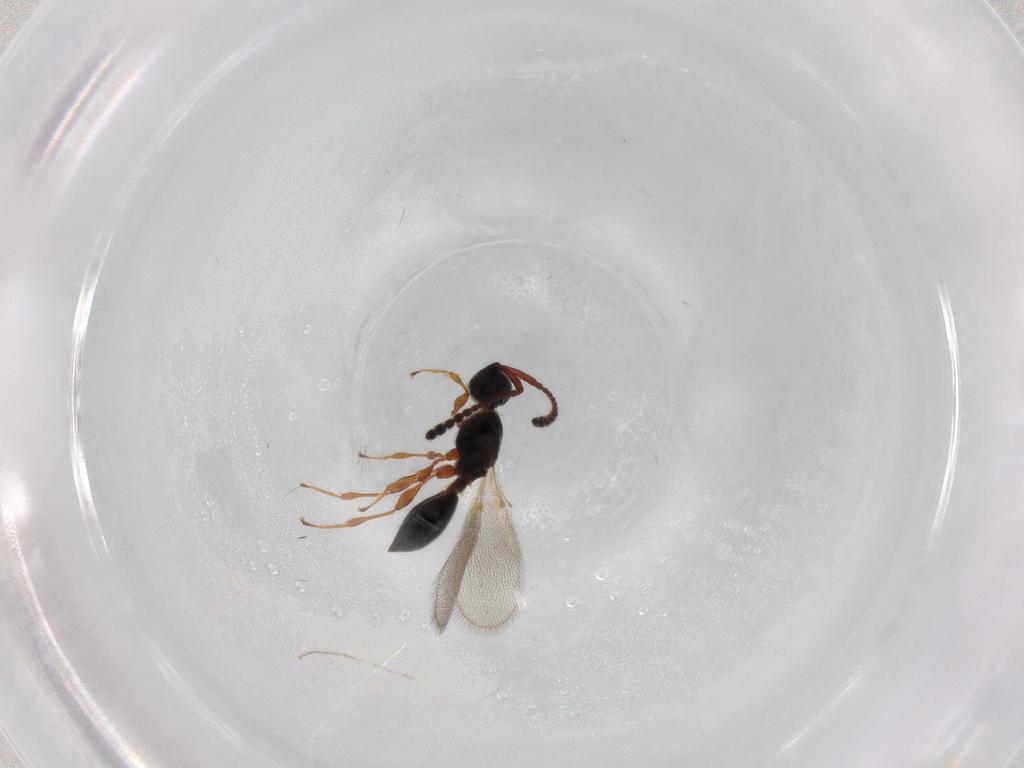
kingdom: Animalia
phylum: Arthropoda
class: Insecta
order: Hymenoptera
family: Diapriidae
